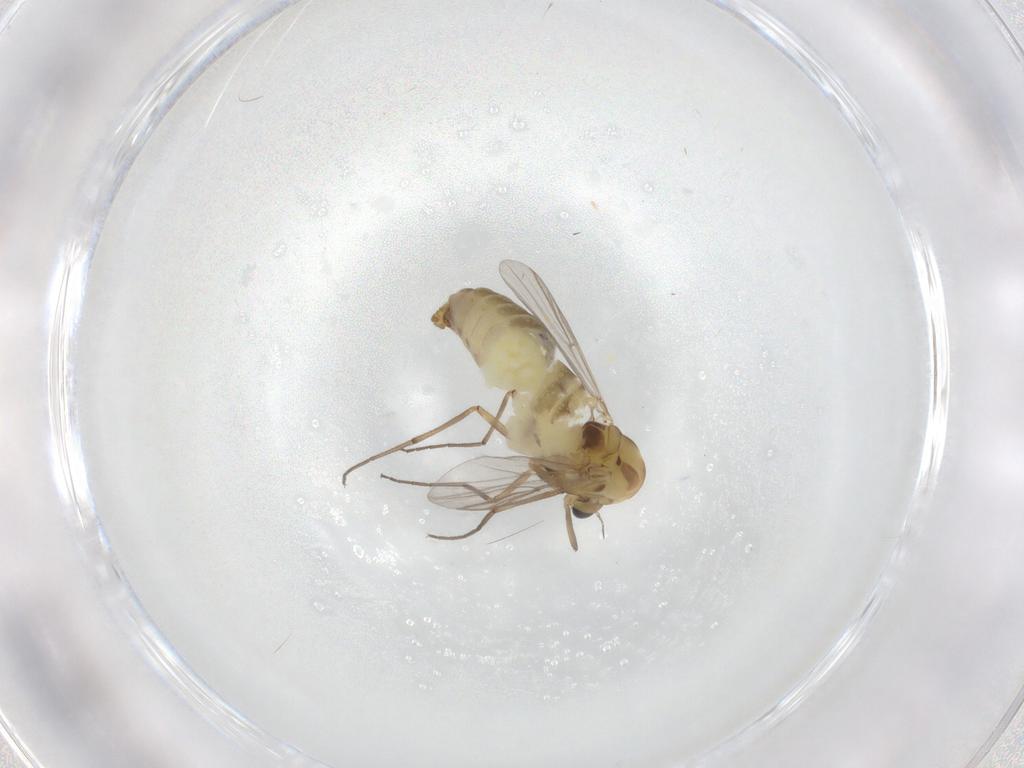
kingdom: Animalia
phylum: Arthropoda
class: Insecta
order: Diptera
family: Chironomidae
